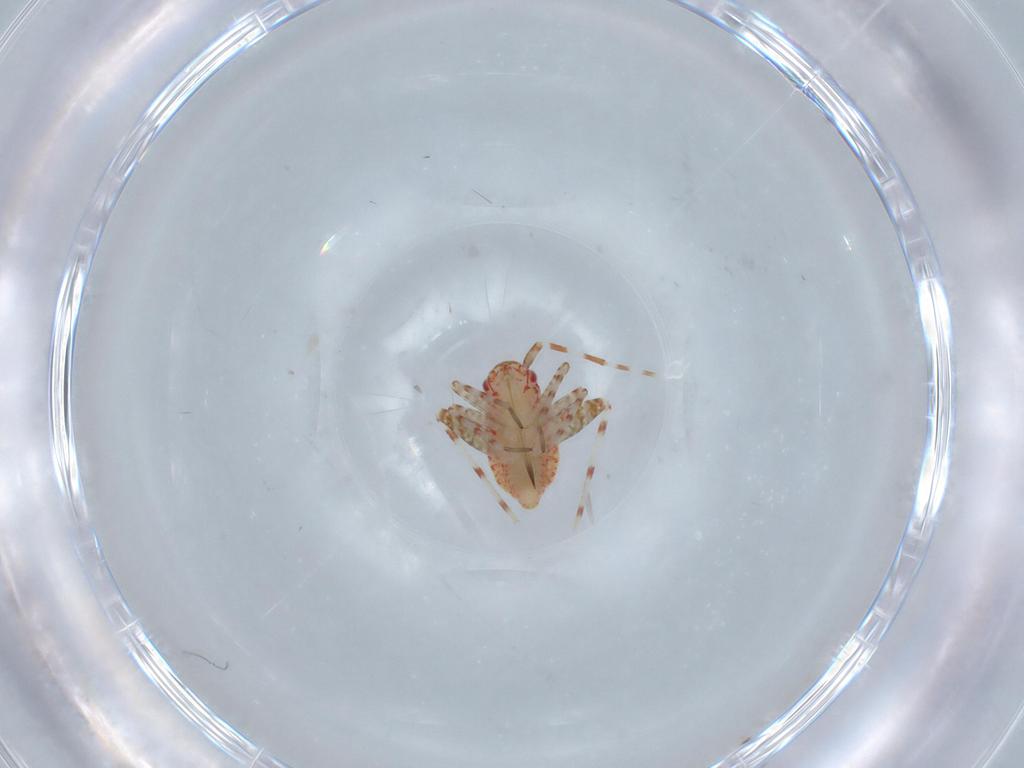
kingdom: Animalia
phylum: Arthropoda
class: Insecta
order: Hemiptera
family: Miridae
